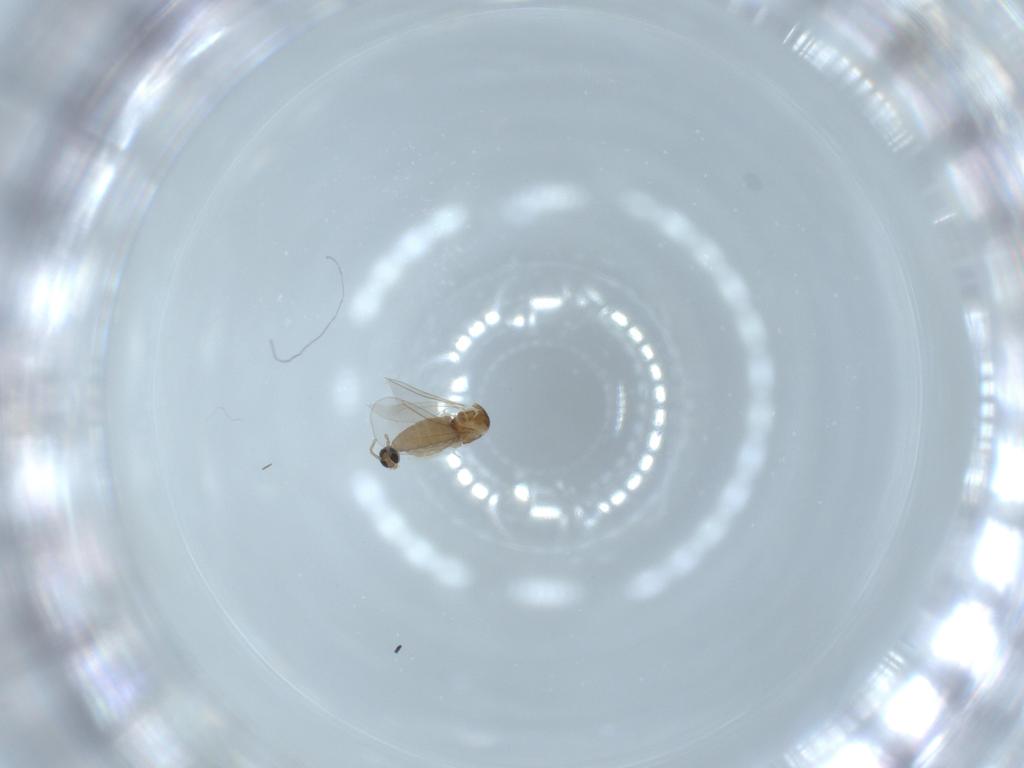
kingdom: Animalia
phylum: Arthropoda
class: Insecta
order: Diptera
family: Cecidomyiidae
